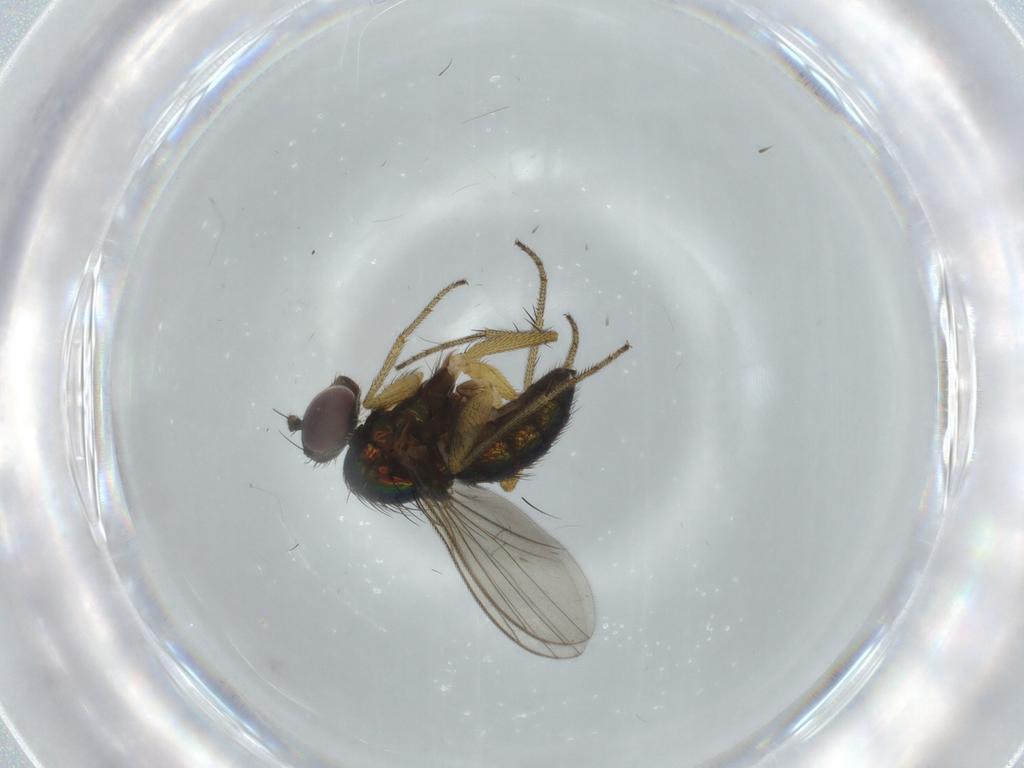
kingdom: Animalia
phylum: Arthropoda
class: Insecta
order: Diptera
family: Dolichopodidae
